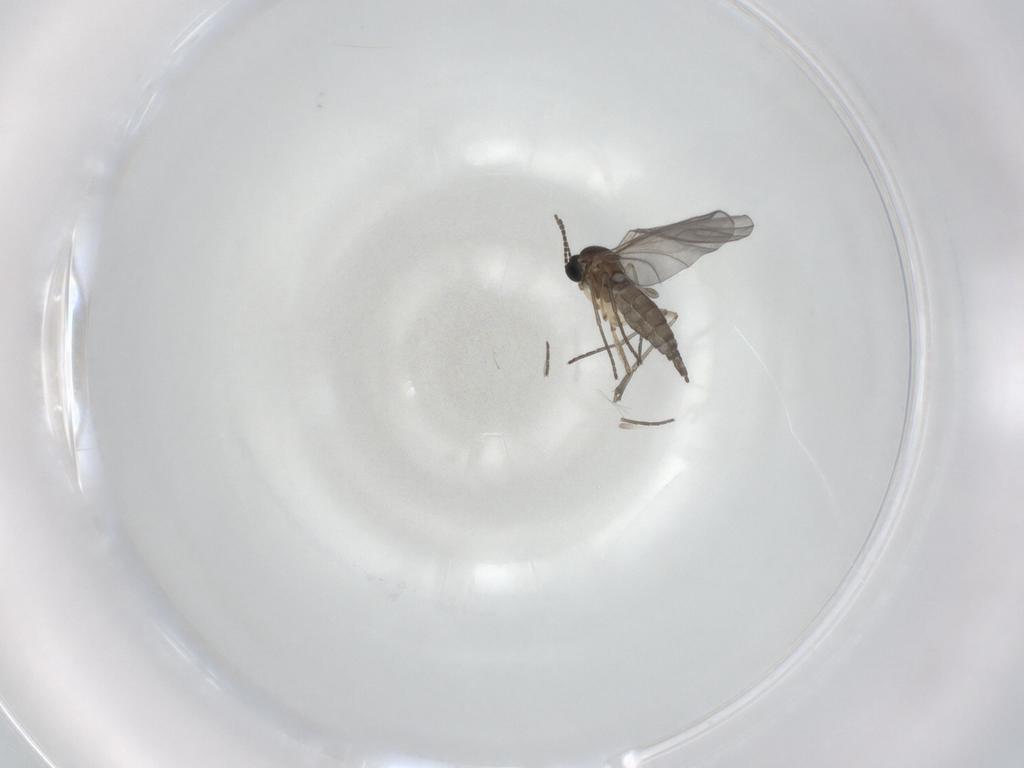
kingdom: Animalia
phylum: Arthropoda
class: Insecta
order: Diptera
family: Sciaridae
